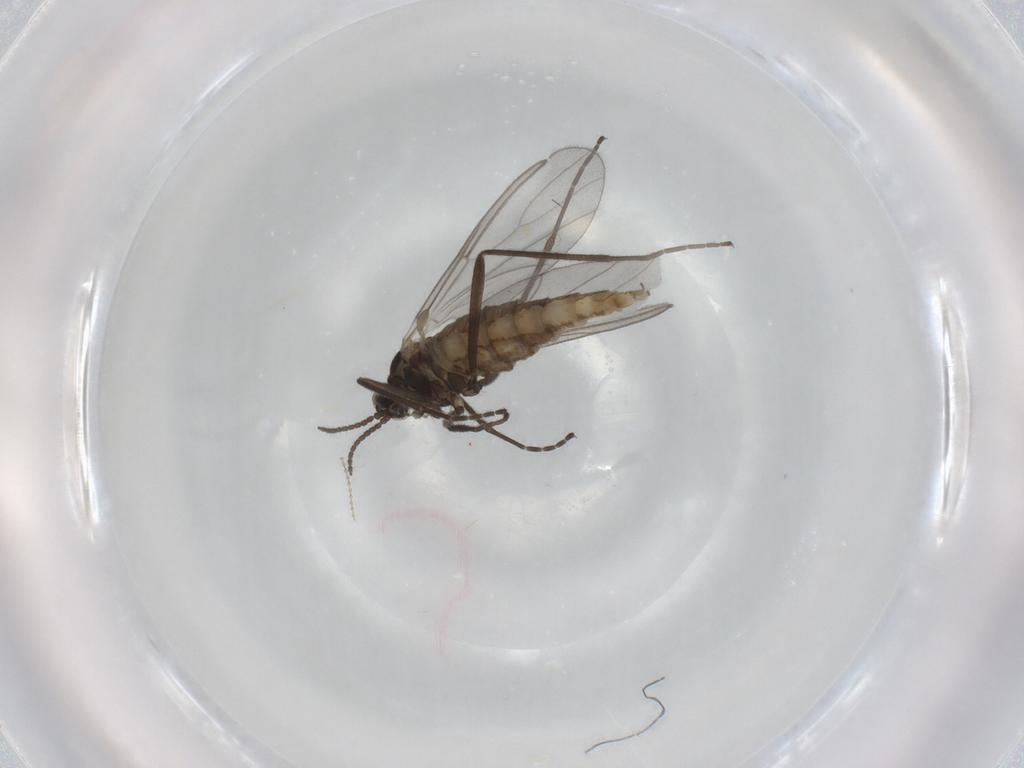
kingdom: Animalia
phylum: Arthropoda
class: Insecta
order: Diptera
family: Cecidomyiidae
